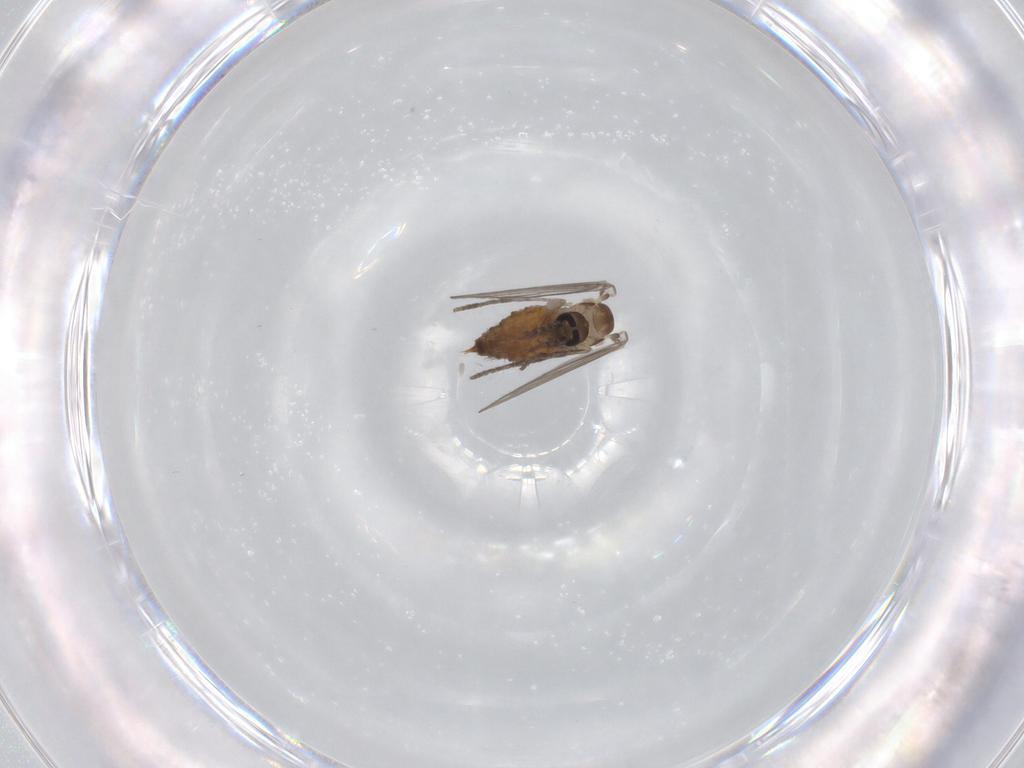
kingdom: Animalia
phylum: Arthropoda
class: Insecta
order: Diptera
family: Psychodidae
